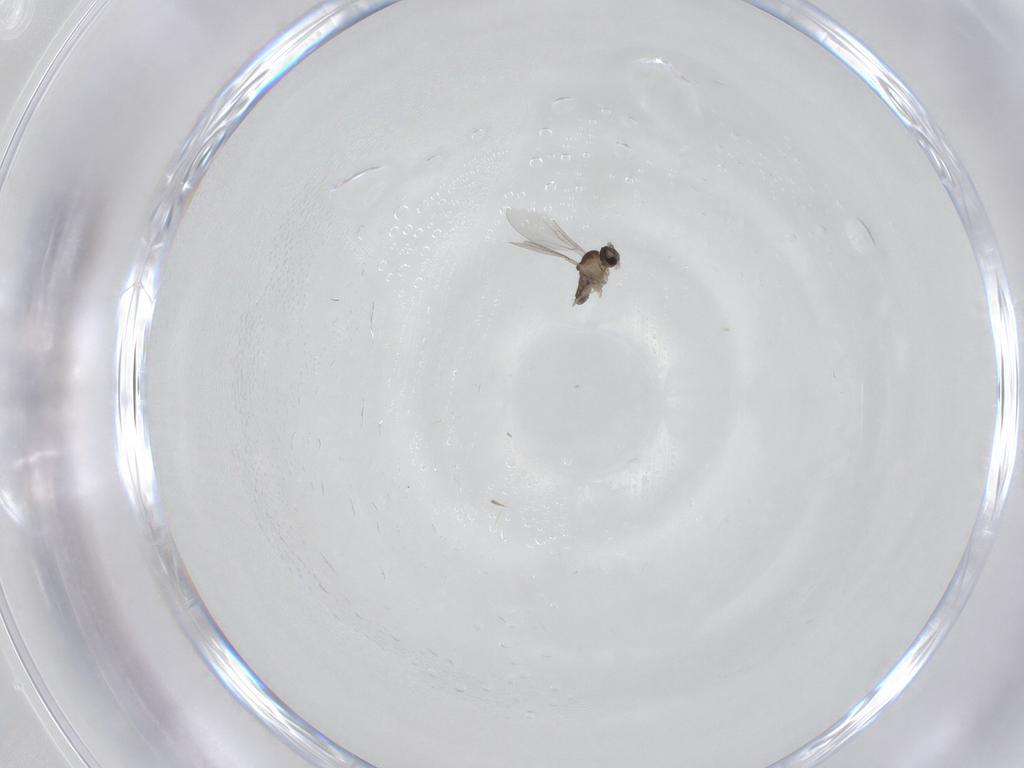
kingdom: Animalia
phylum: Arthropoda
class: Insecta
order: Diptera
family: Cecidomyiidae
